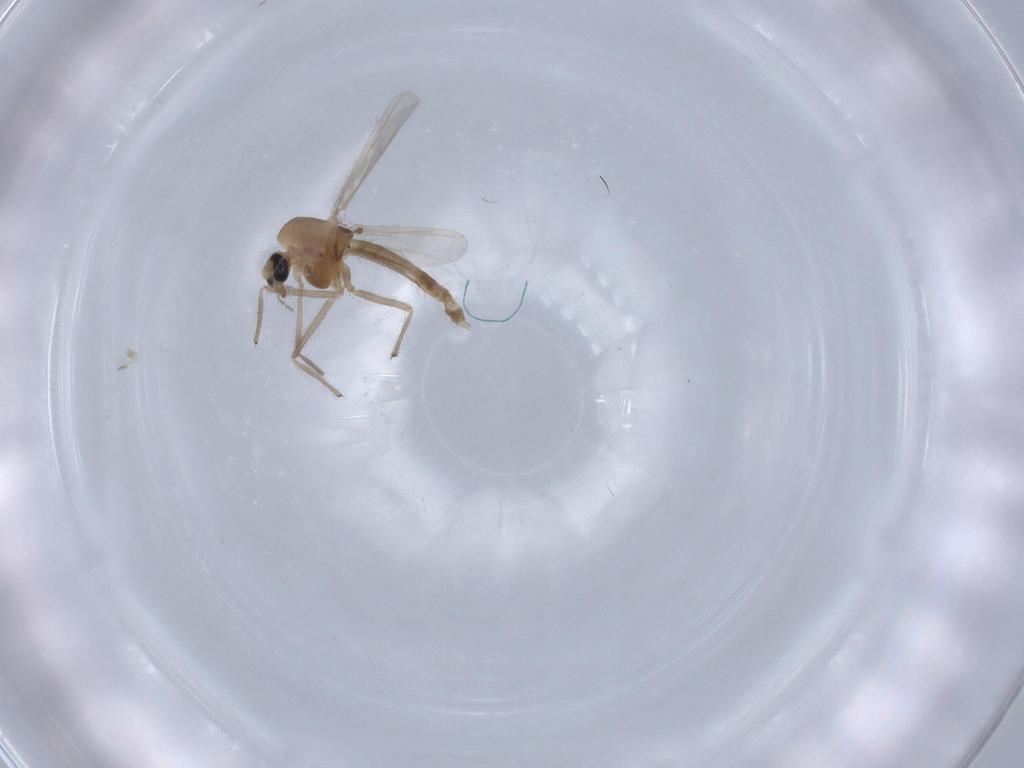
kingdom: Animalia
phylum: Arthropoda
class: Insecta
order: Diptera
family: Chironomidae
